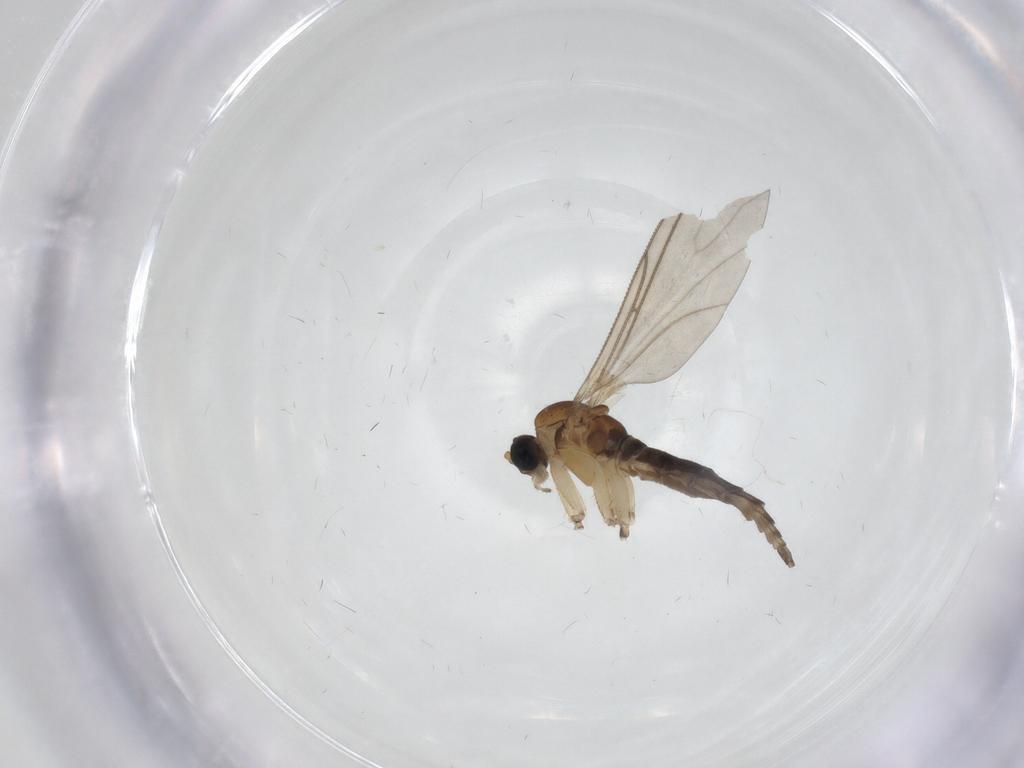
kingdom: Animalia
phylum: Arthropoda
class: Insecta
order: Diptera
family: Sciaridae
